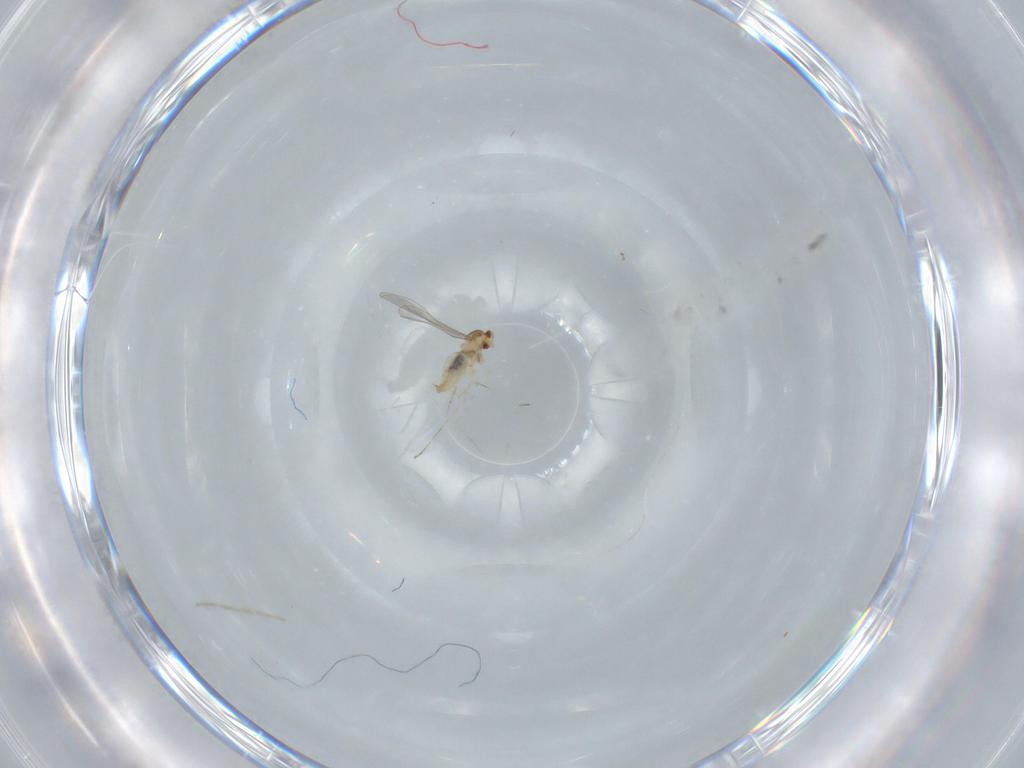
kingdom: Animalia
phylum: Arthropoda
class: Insecta
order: Diptera
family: Cecidomyiidae
